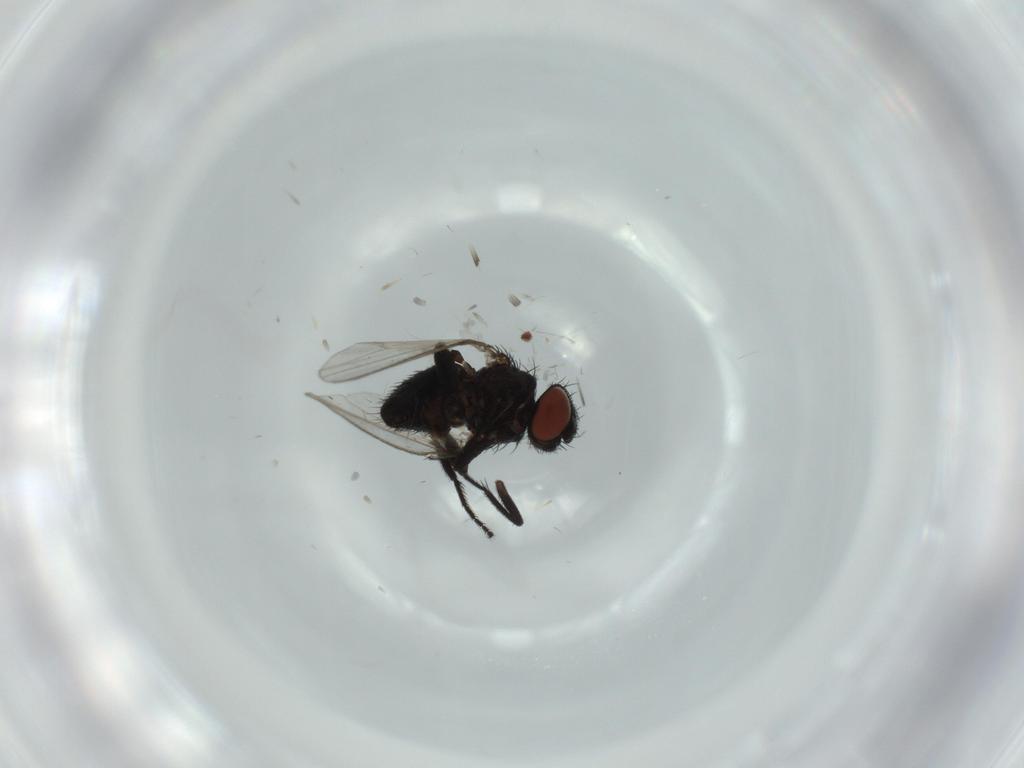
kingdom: Animalia
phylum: Arthropoda
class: Insecta
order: Diptera
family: Milichiidae
